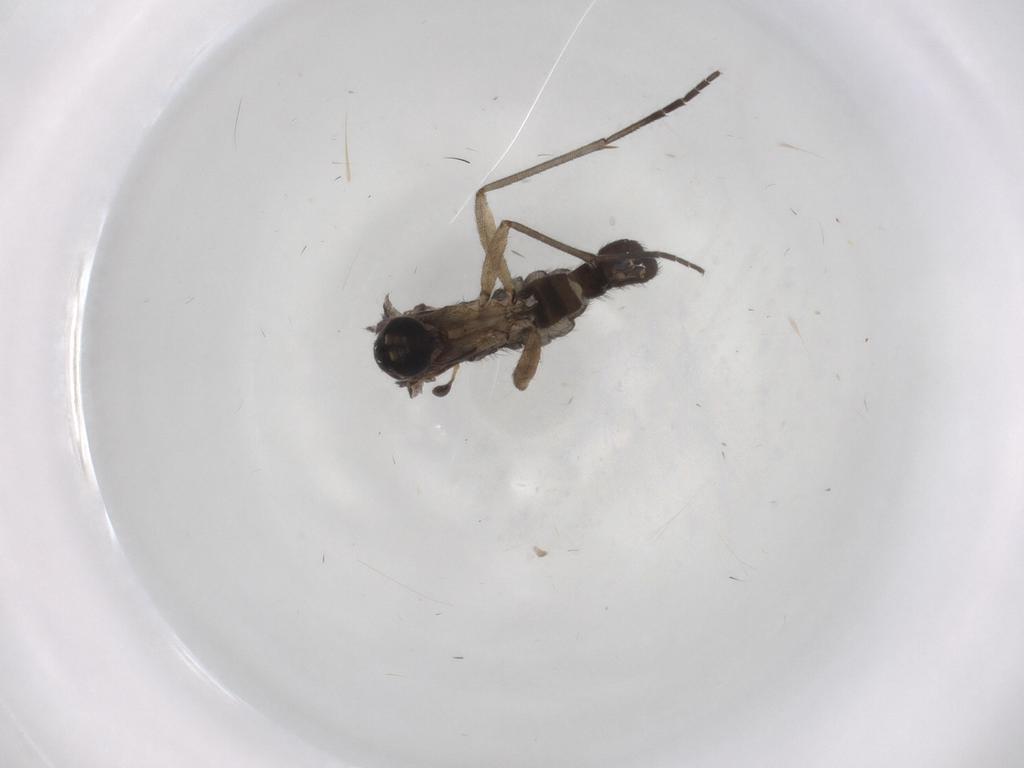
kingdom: Animalia
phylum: Arthropoda
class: Insecta
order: Diptera
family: Sciaridae
